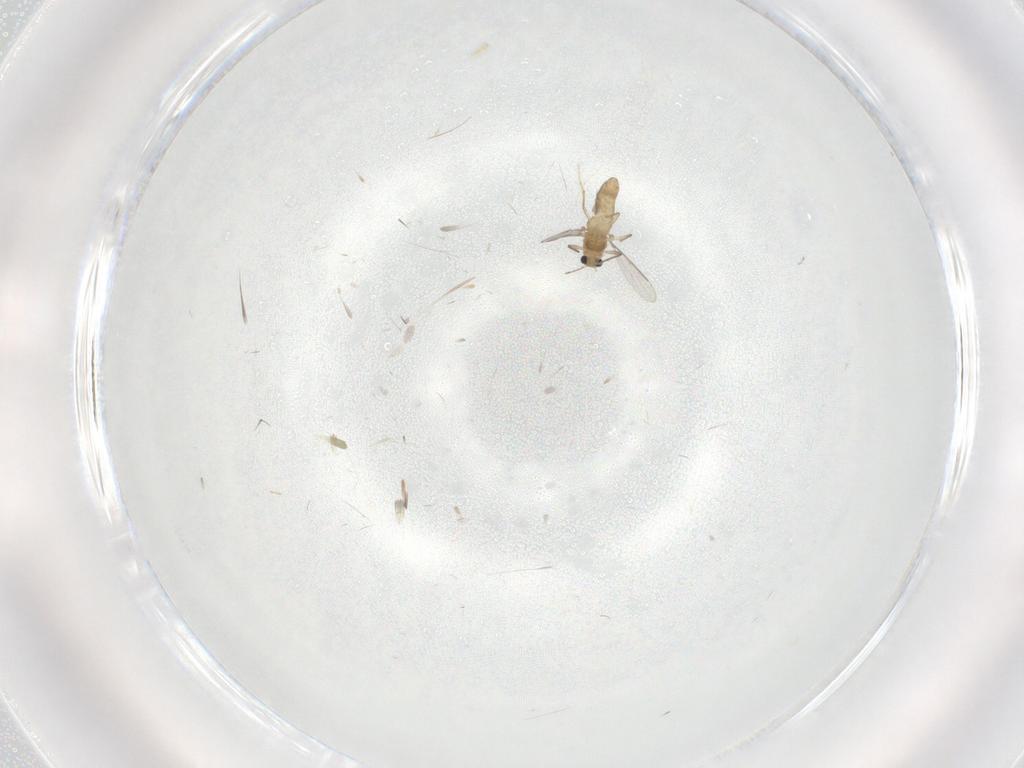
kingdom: Animalia
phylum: Arthropoda
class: Insecta
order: Diptera
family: Chironomidae
